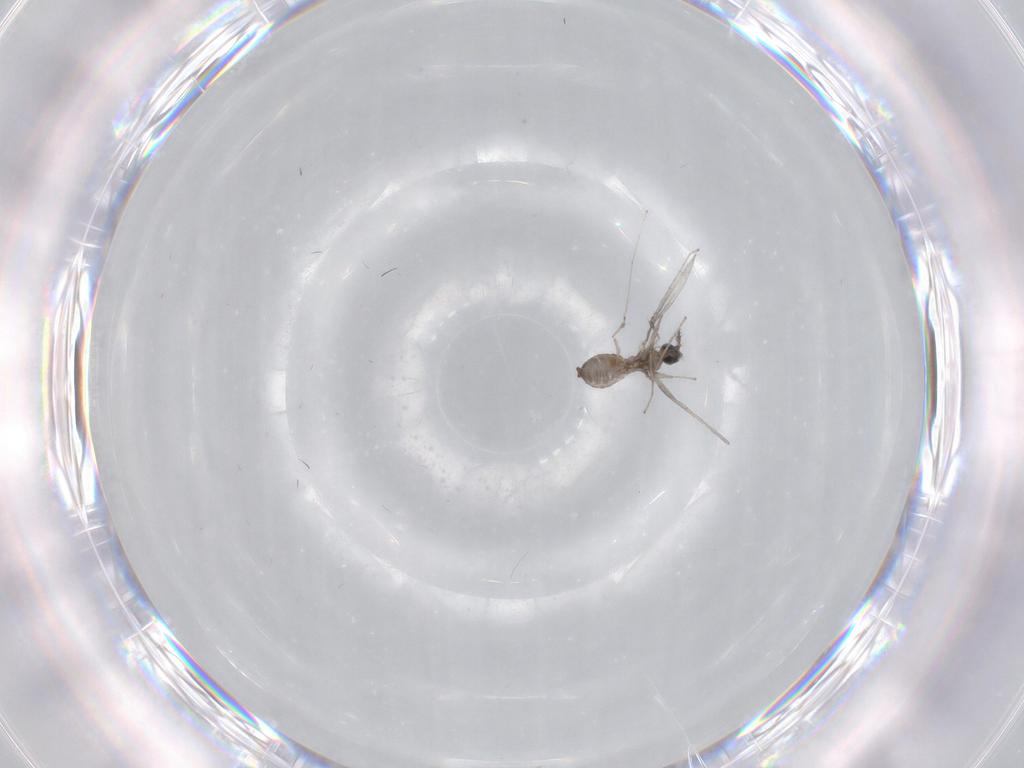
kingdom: Animalia
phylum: Arthropoda
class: Insecta
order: Diptera
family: Cecidomyiidae
